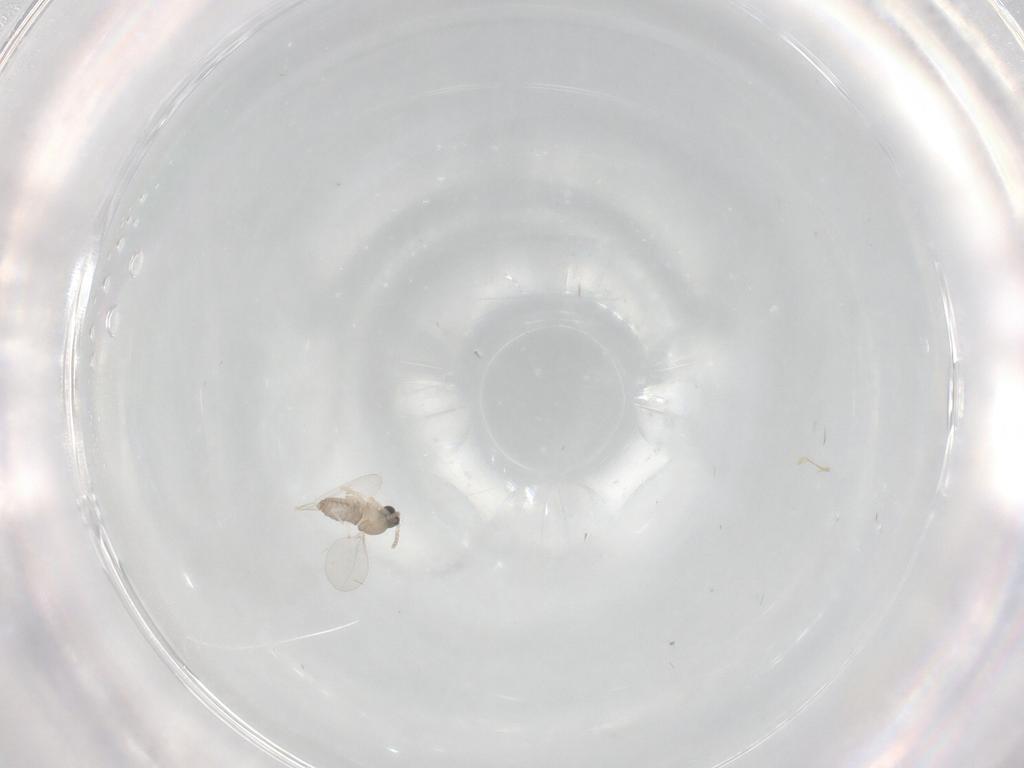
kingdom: Animalia
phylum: Arthropoda
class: Insecta
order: Diptera
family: Cecidomyiidae
